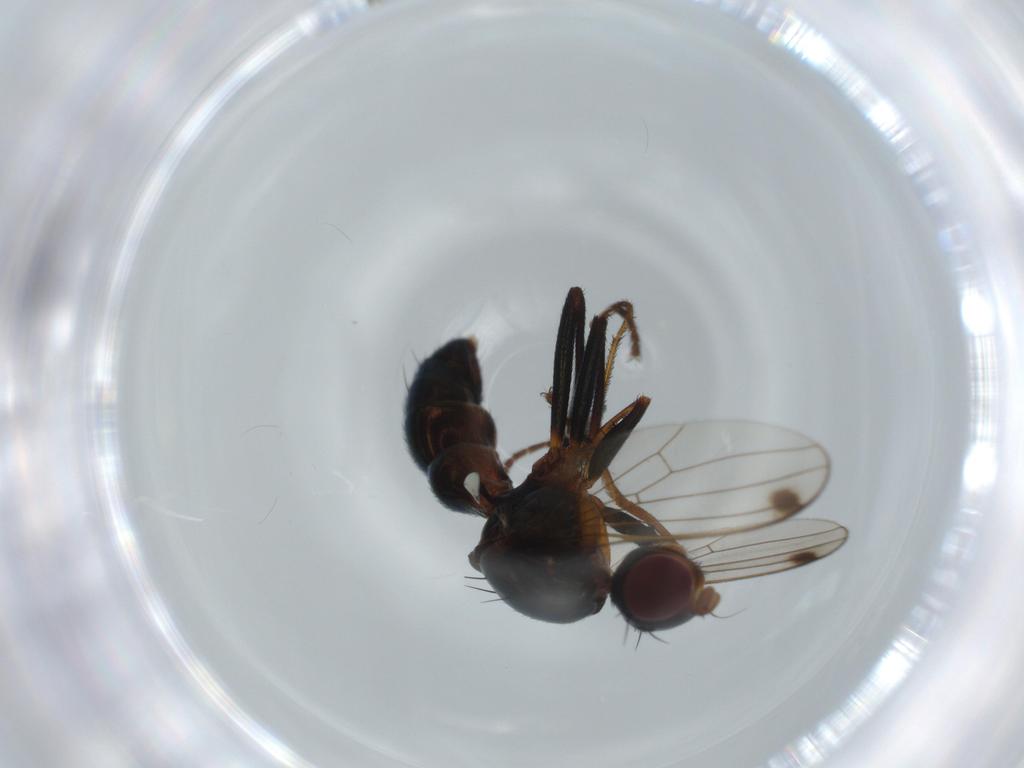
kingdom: Animalia
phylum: Arthropoda
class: Insecta
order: Diptera
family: Sepsidae
